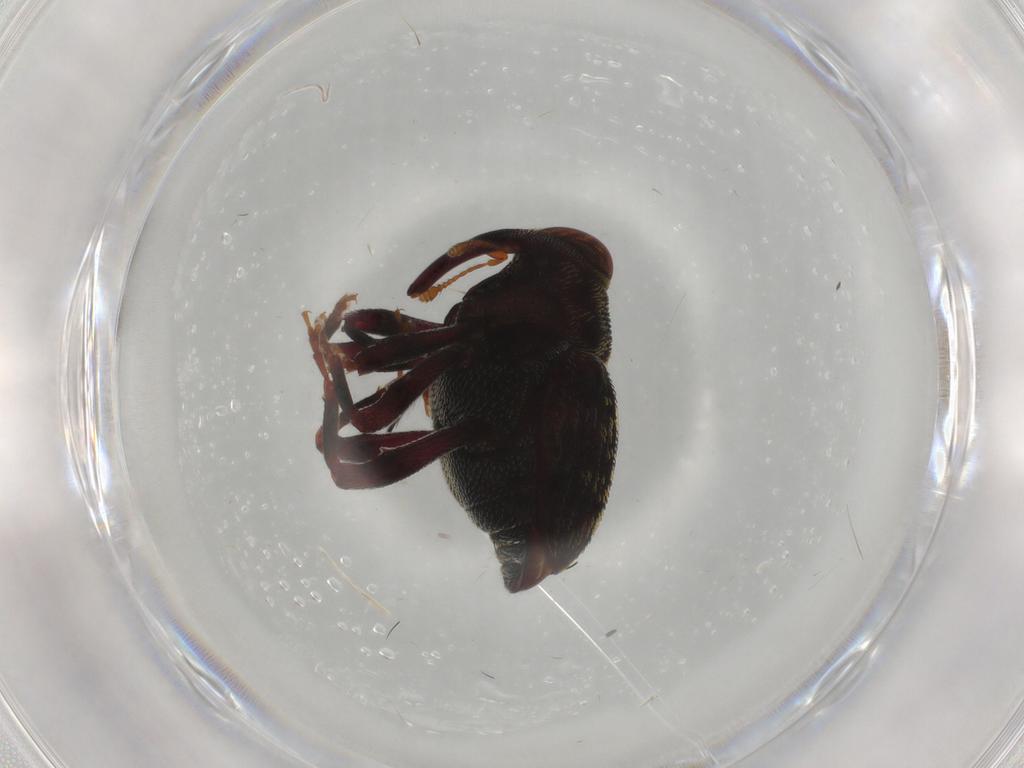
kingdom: Animalia
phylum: Arthropoda
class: Insecta
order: Coleoptera
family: Curculionidae
